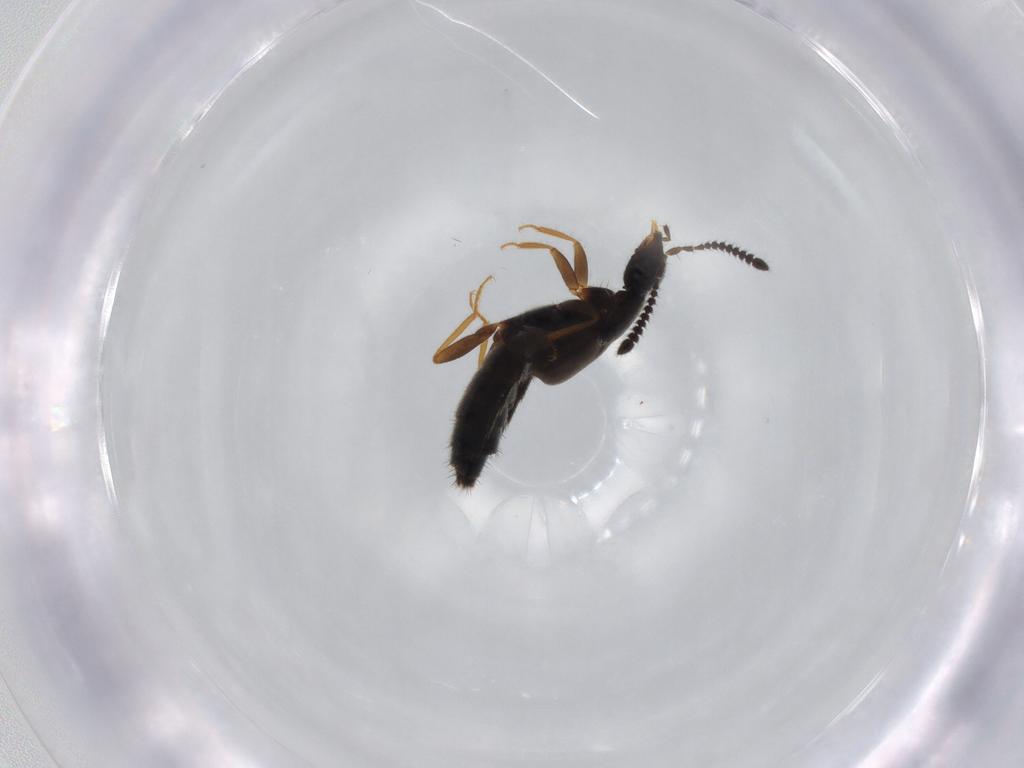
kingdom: Animalia
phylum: Arthropoda
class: Insecta
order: Coleoptera
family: Staphylinidae
